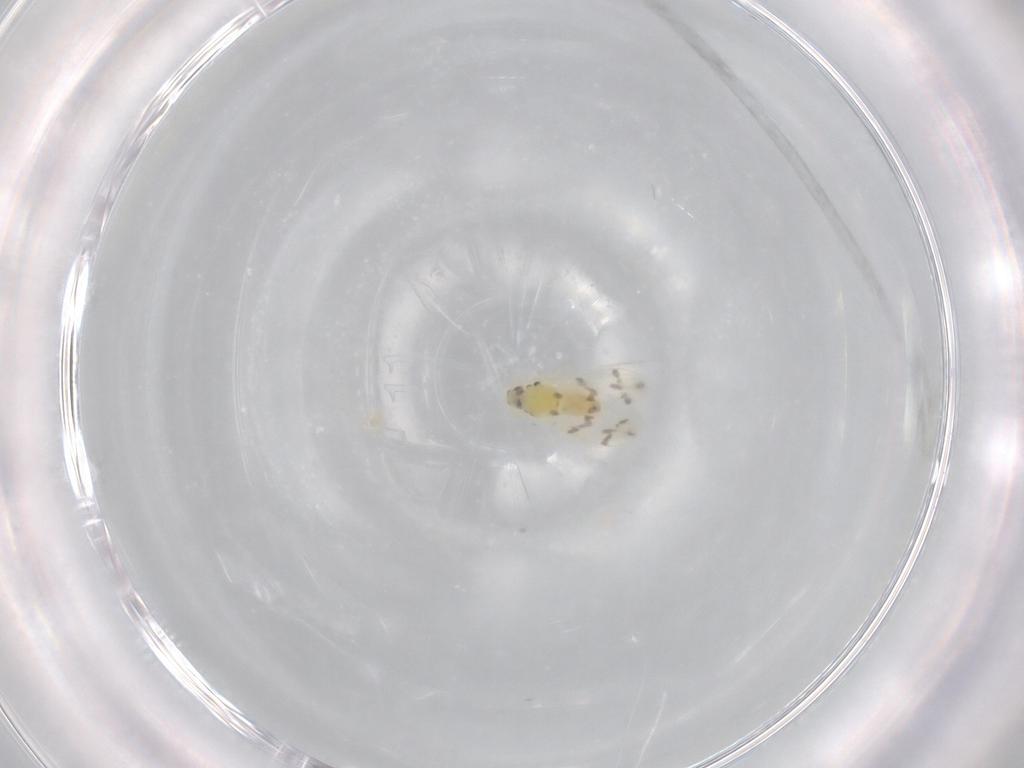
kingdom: Animalia
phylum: Arthropoda
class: Insecta
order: Hemiptera
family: Aleyrodidae
